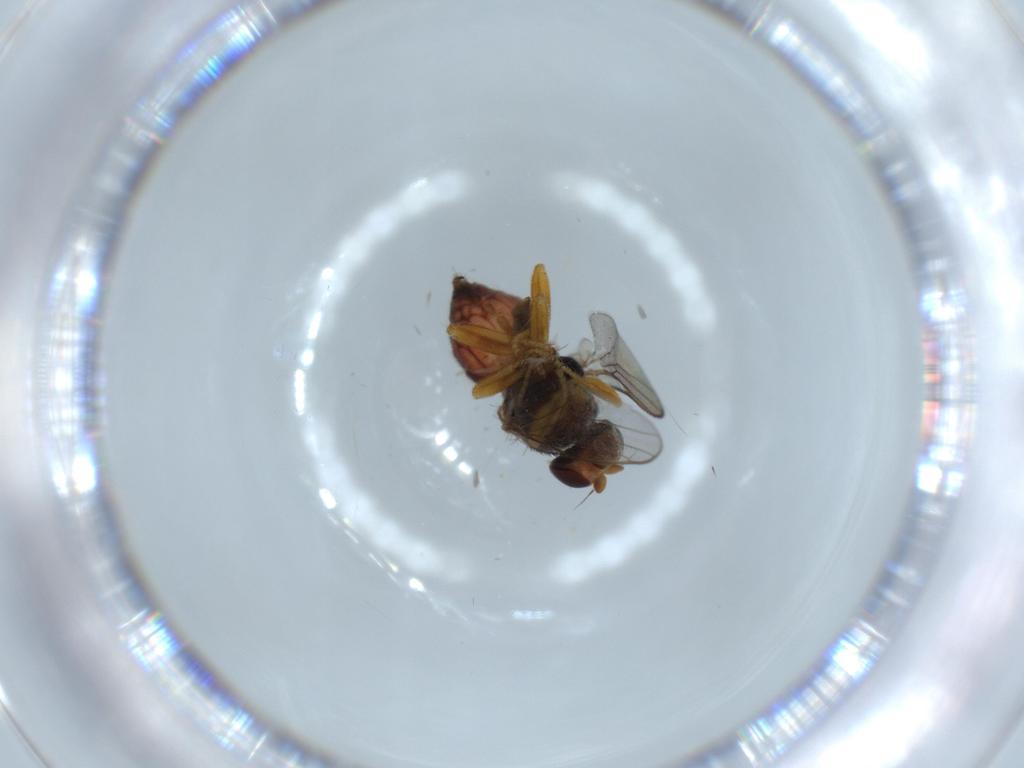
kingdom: Animalia
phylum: Arthropoda
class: Insecta
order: Diptera
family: Chloropidae
